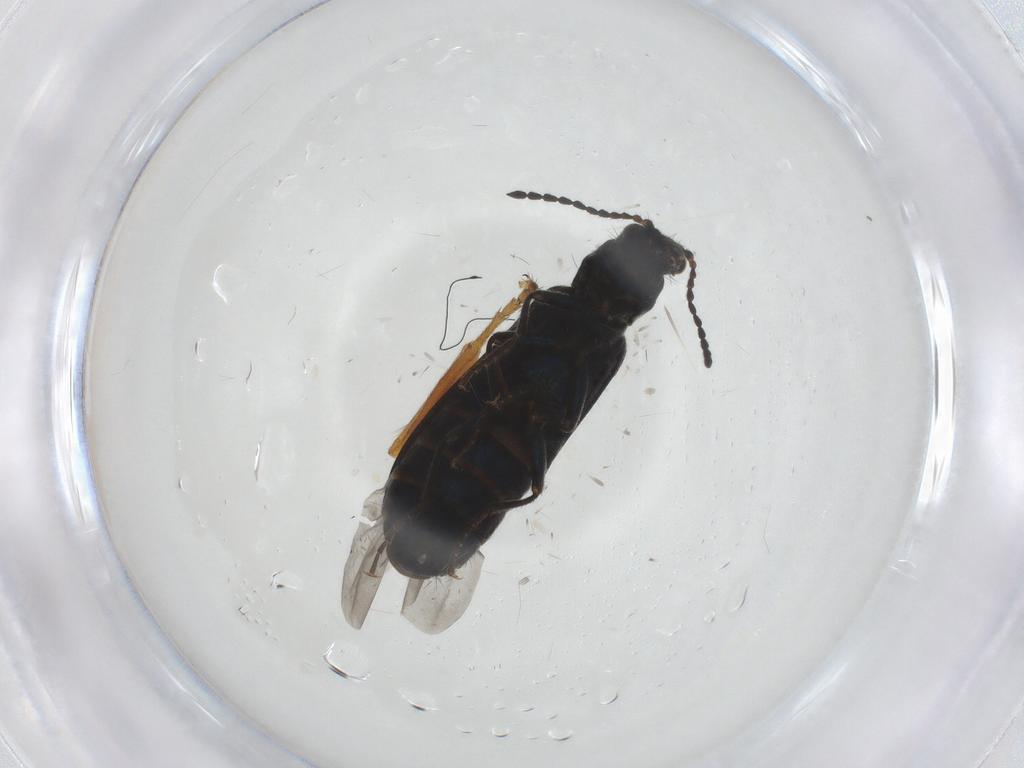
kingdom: Animalia
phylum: Arthropoda
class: Insecta
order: Coleoptera
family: Melyridae
